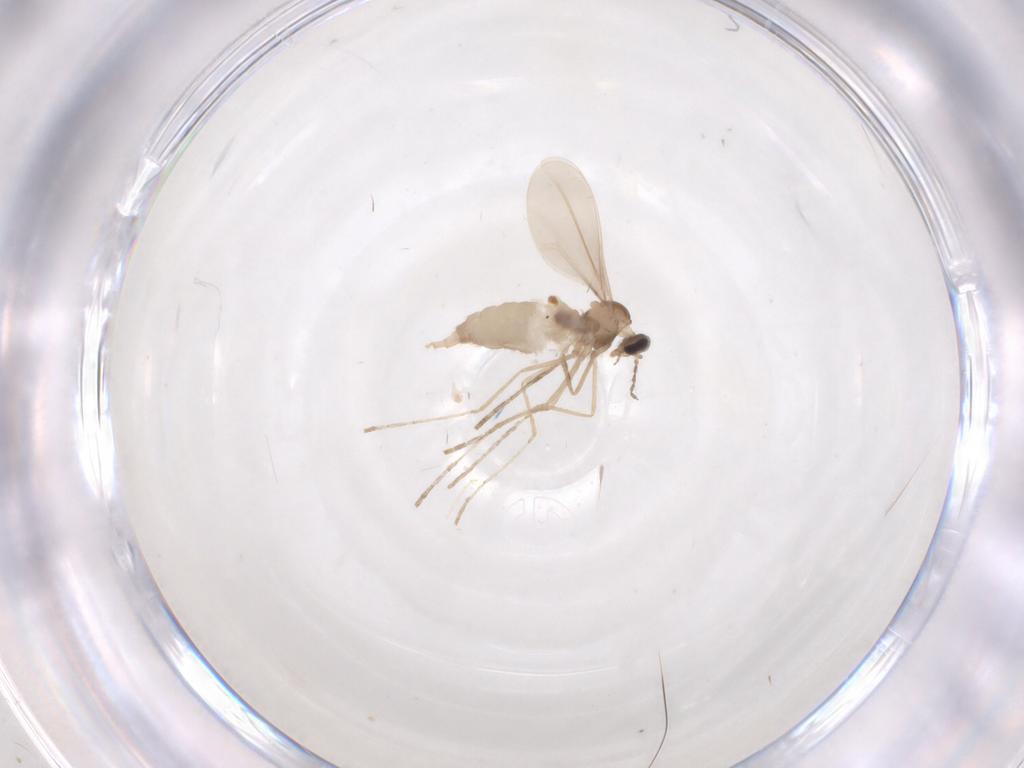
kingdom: Animalia
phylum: Arthropoda
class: Insecta
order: Diptera
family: Cecidomyiidae
